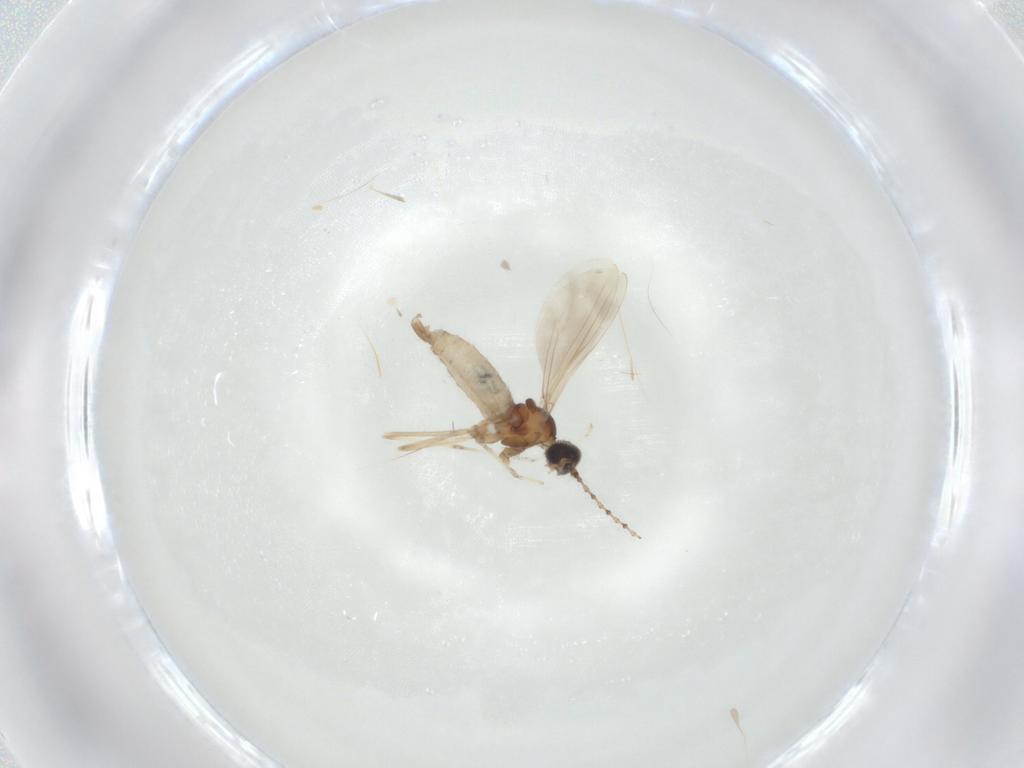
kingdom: Animalia
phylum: Arthropoda
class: Insecta
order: Diptera
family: Cecidomyiidae
